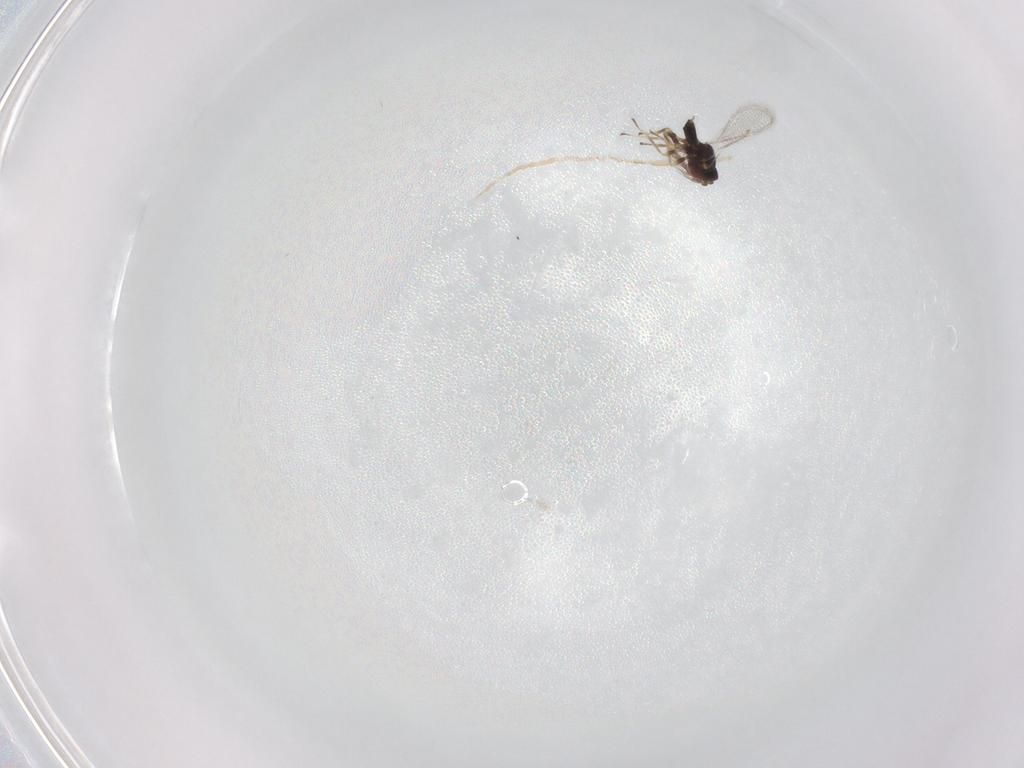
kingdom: Animalia
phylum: Arthropoda
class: Insecta
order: Hymenoptera
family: Eulophidae
